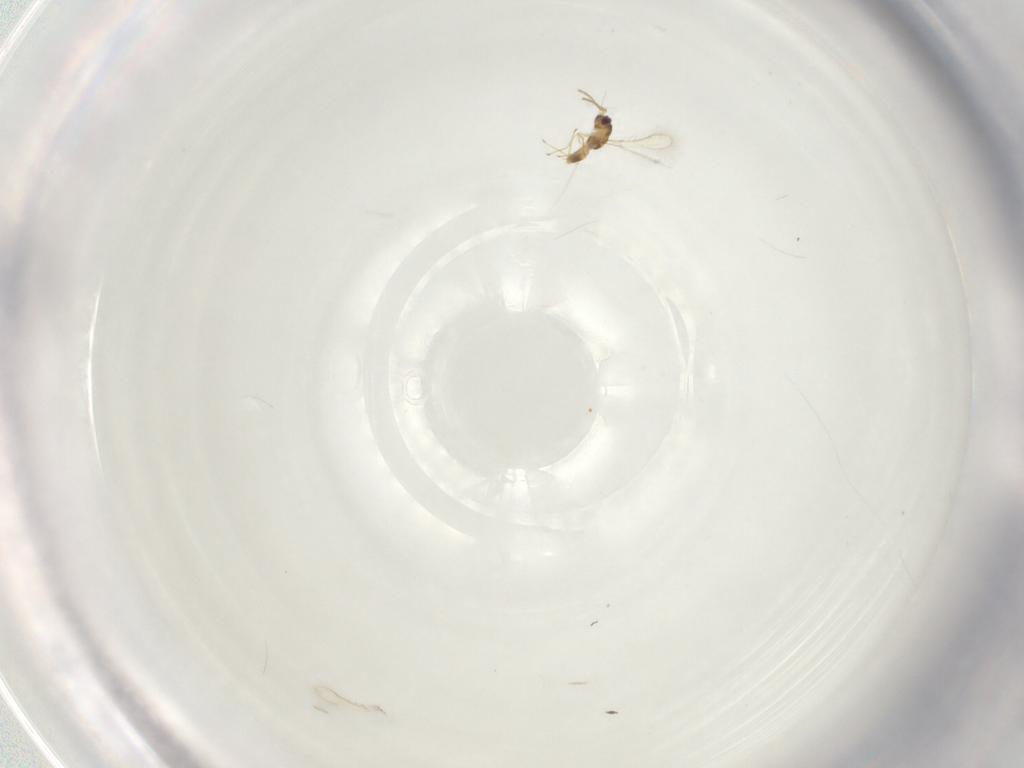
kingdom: Animalia
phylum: Arthropoda
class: Insecta
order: Hymenoptera
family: Mymaridae
